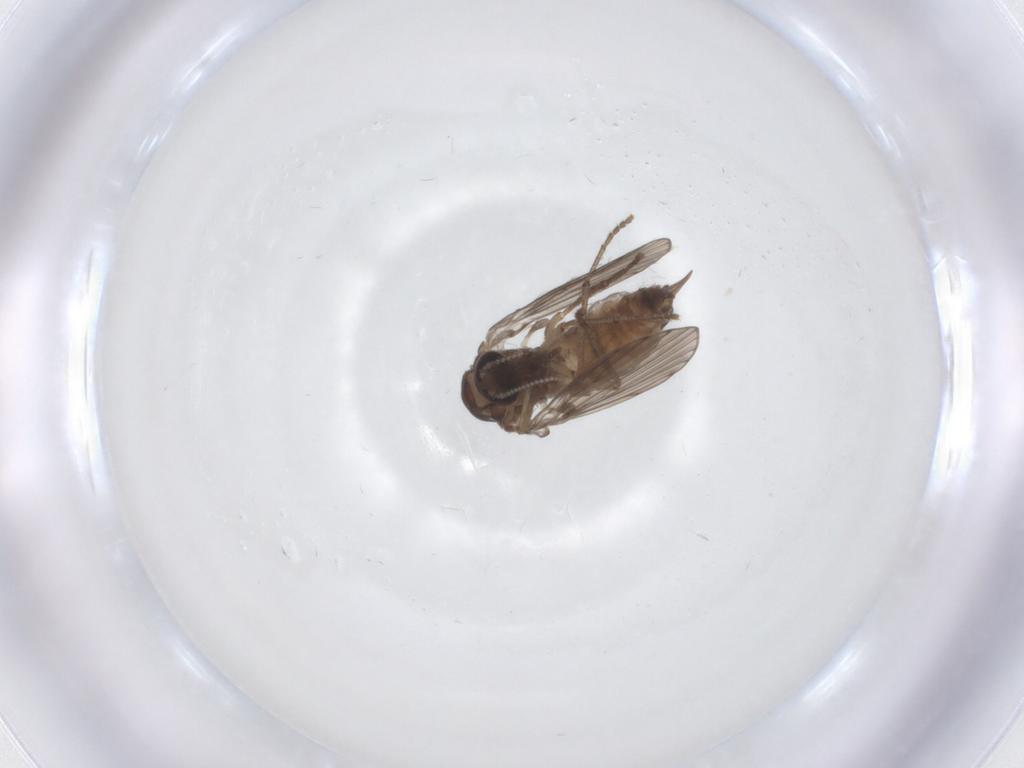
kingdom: Animalia
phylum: Arthropoda
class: Insecta
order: Diptera
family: Psychodidae
